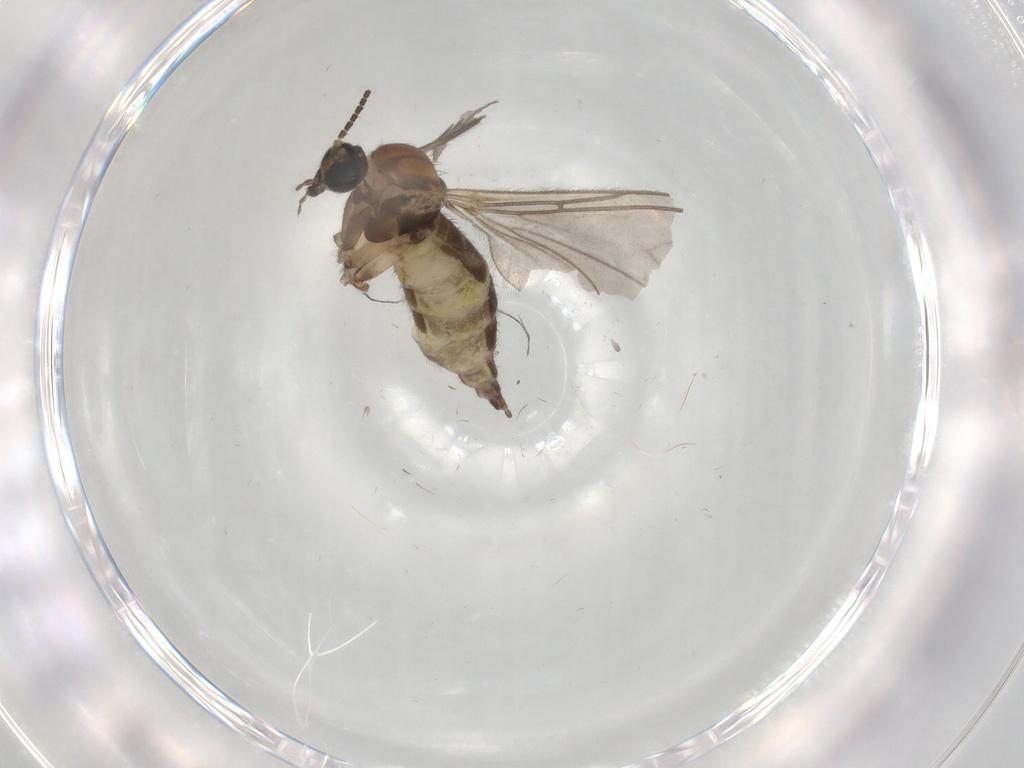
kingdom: Animalia
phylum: Arthropoda
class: Insecta
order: Diptera
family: Sciaridae
